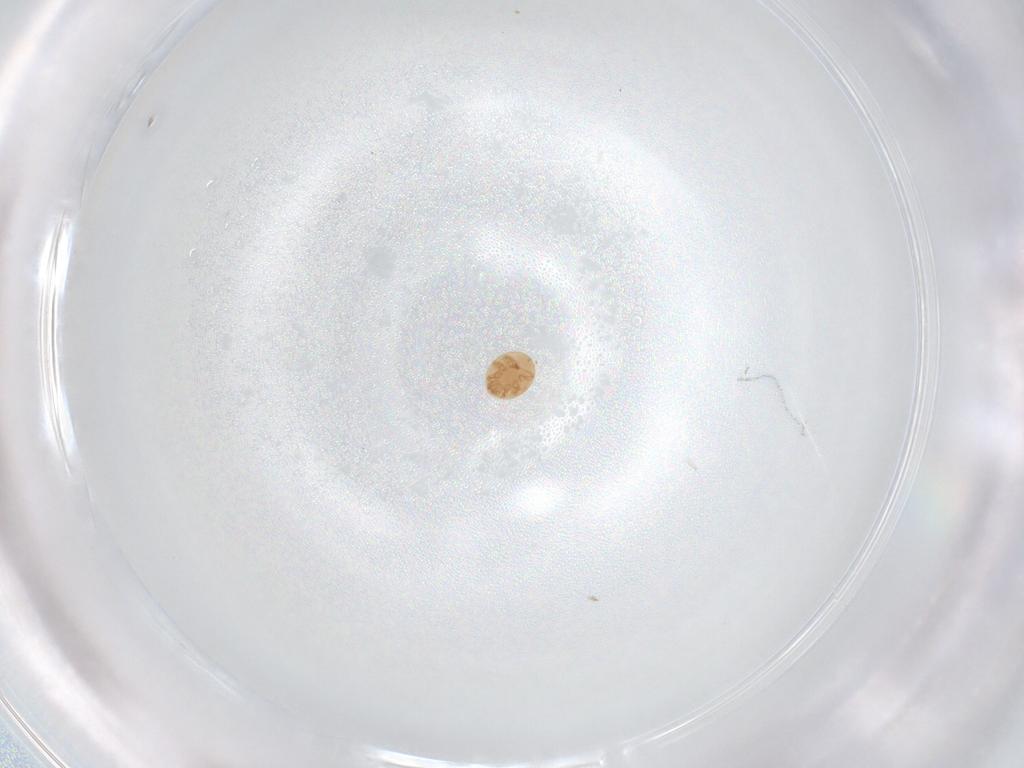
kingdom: Animalia
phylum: Arthropoda
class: Arachnida
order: Mesostigmata
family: Trematuridae
